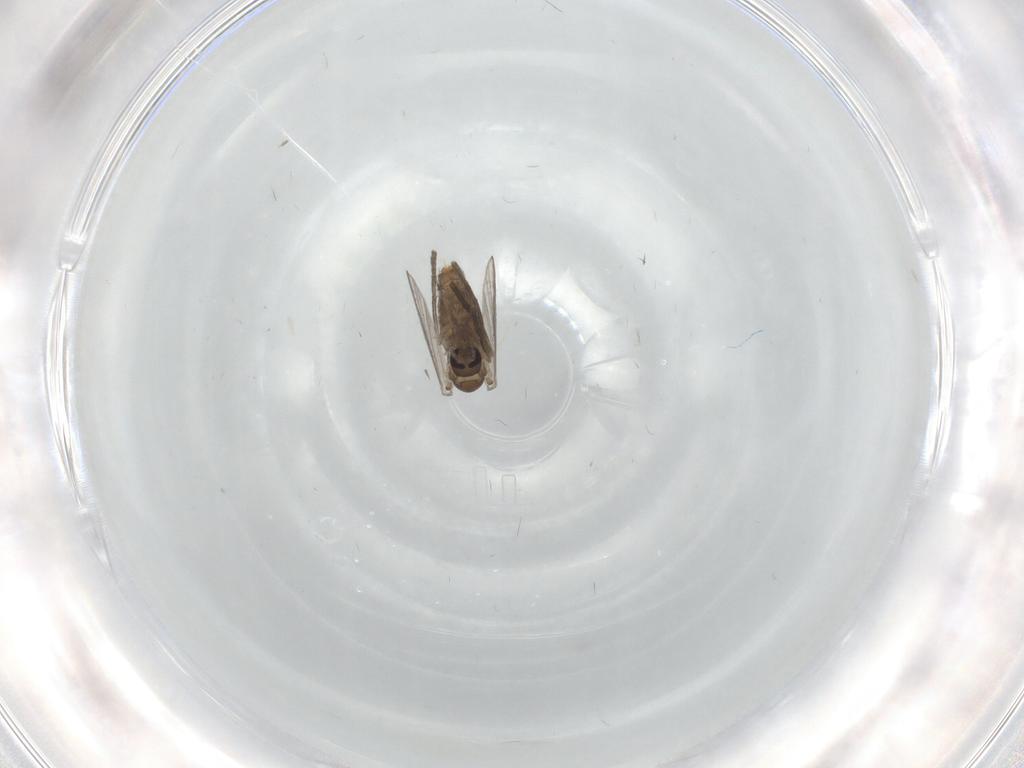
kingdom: Animalia
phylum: Arthropoda
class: Insecta
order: Diptera
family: Psychodidae
